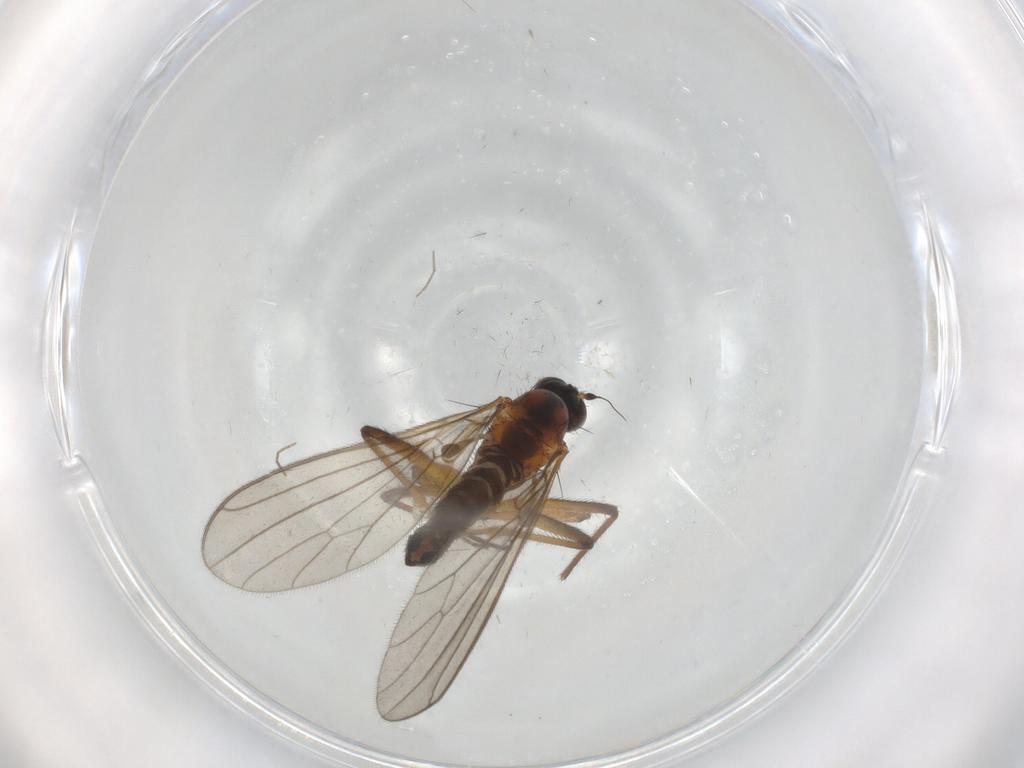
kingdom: Animalia
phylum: Arthropoda
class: Insecta
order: Diptera
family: Empididae
